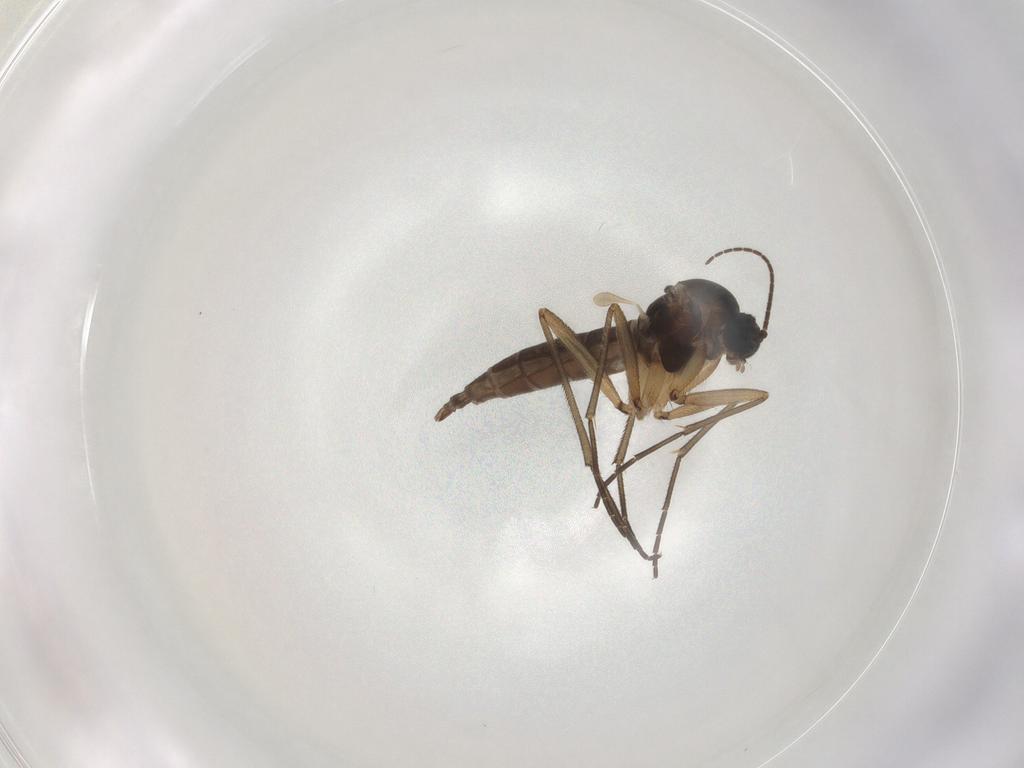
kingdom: Animalia
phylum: Arthropoda
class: Insecta
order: Diptera
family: Sciaridae
